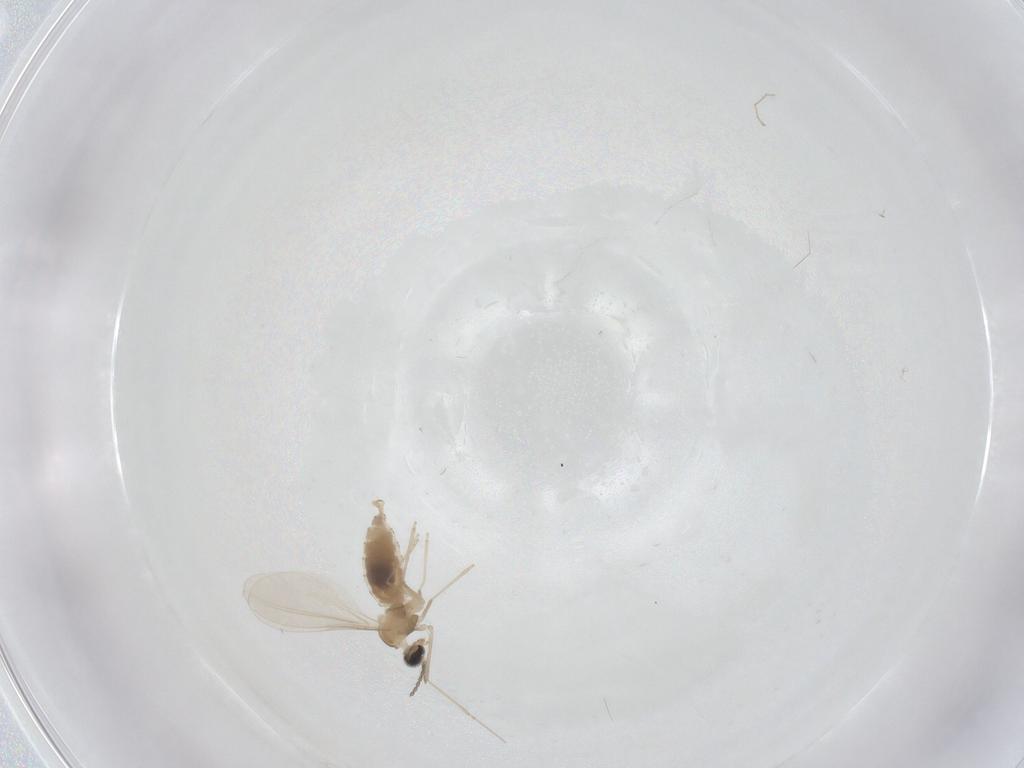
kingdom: Animalia
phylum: Arthropoda
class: Insecta
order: Diptera
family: Cecidomyiidae
